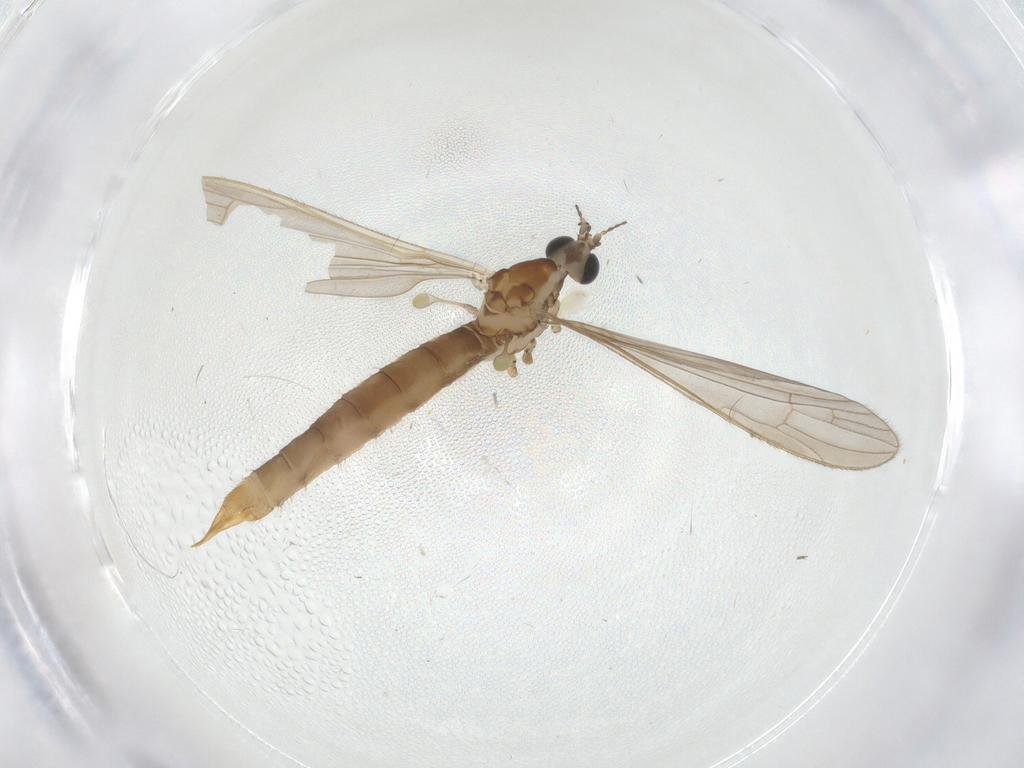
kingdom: Animalia
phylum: Arthropoda
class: Insecta
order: Diptera
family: Limoniidae
